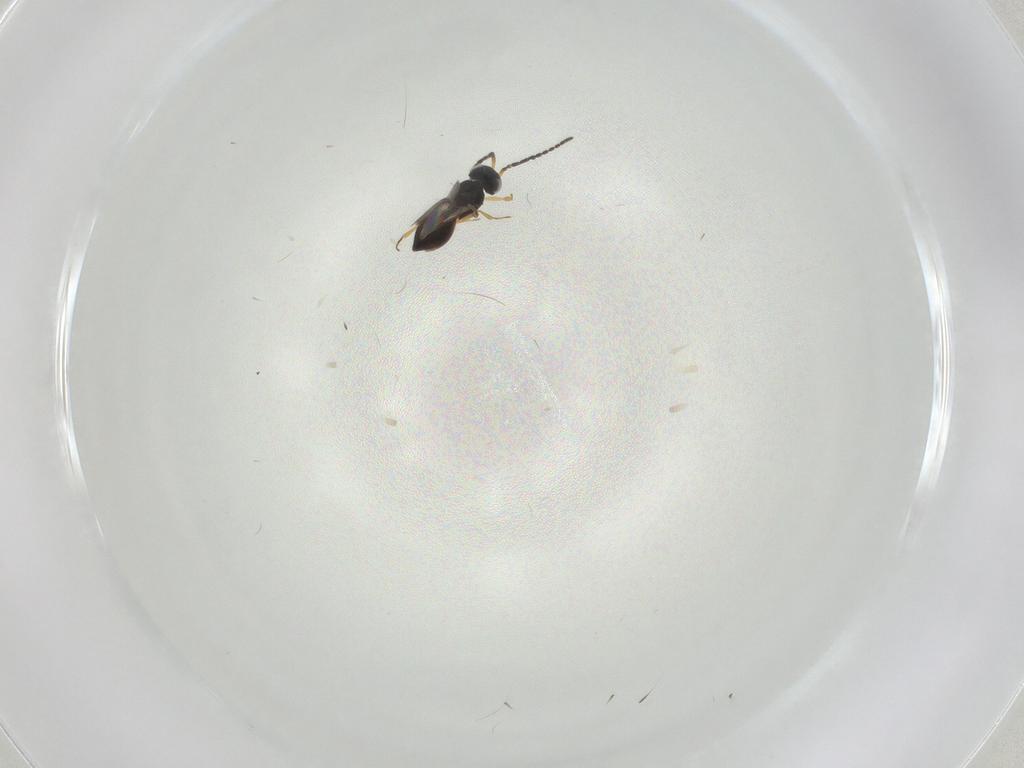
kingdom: Animalia
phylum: Arthropoda
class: Insecta
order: Hymenoptera
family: Scelionidae
